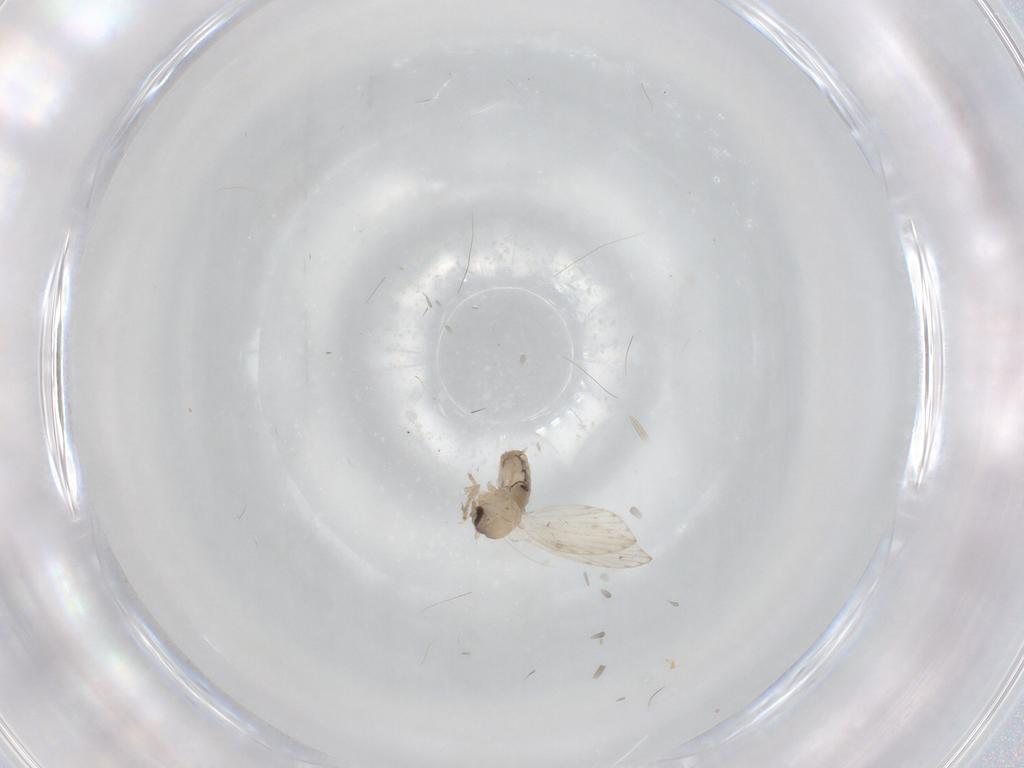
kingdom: Animalia
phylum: Arthropoda
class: Insecta
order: Diptera
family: Psychodidae
